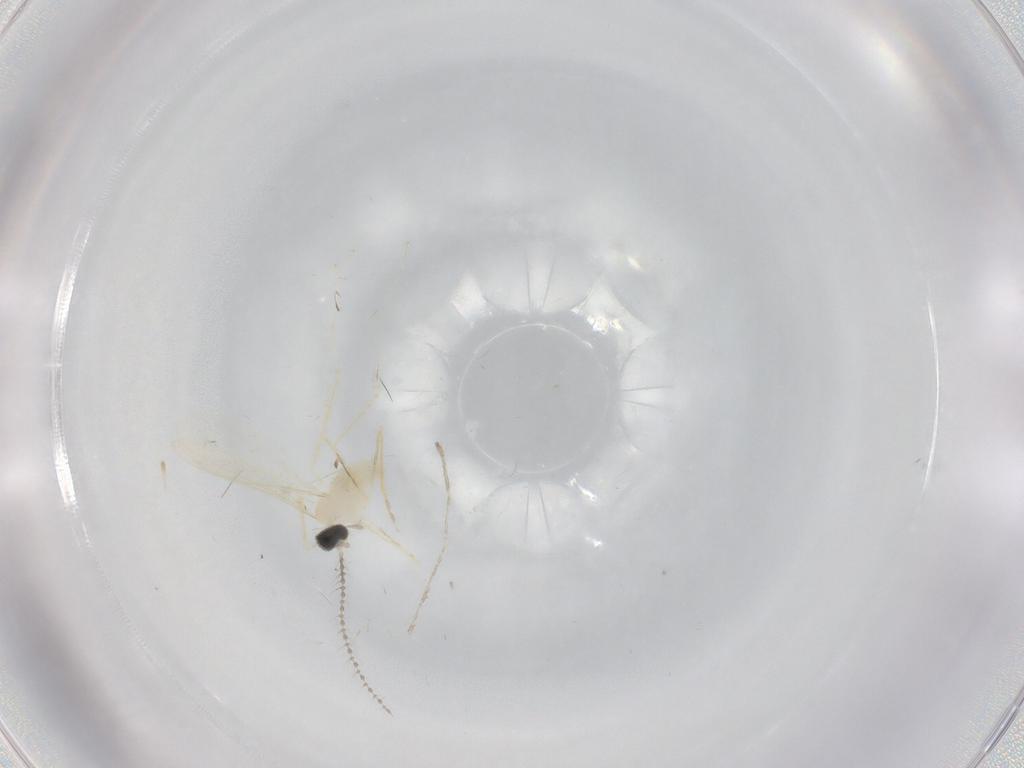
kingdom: Animalia
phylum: Arthropoda
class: Insecta
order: Diptera
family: Cecidomyiidae
